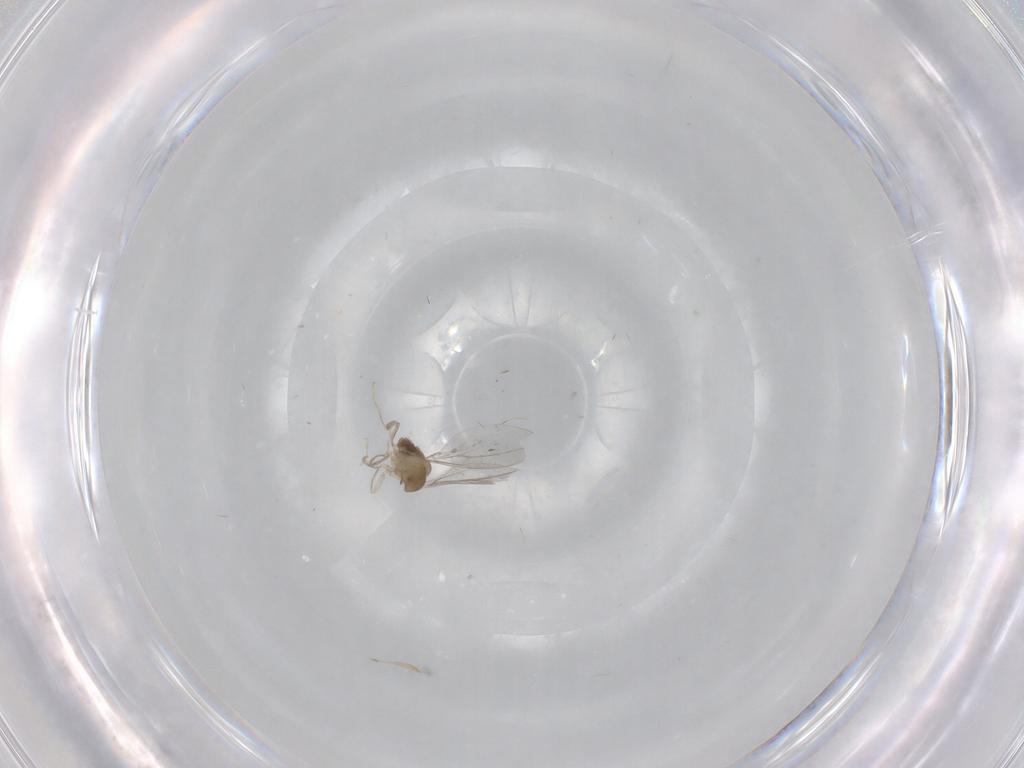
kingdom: Animalia
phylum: Arthropoda
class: Insecta
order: Diptera
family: Cecidomyiidae
